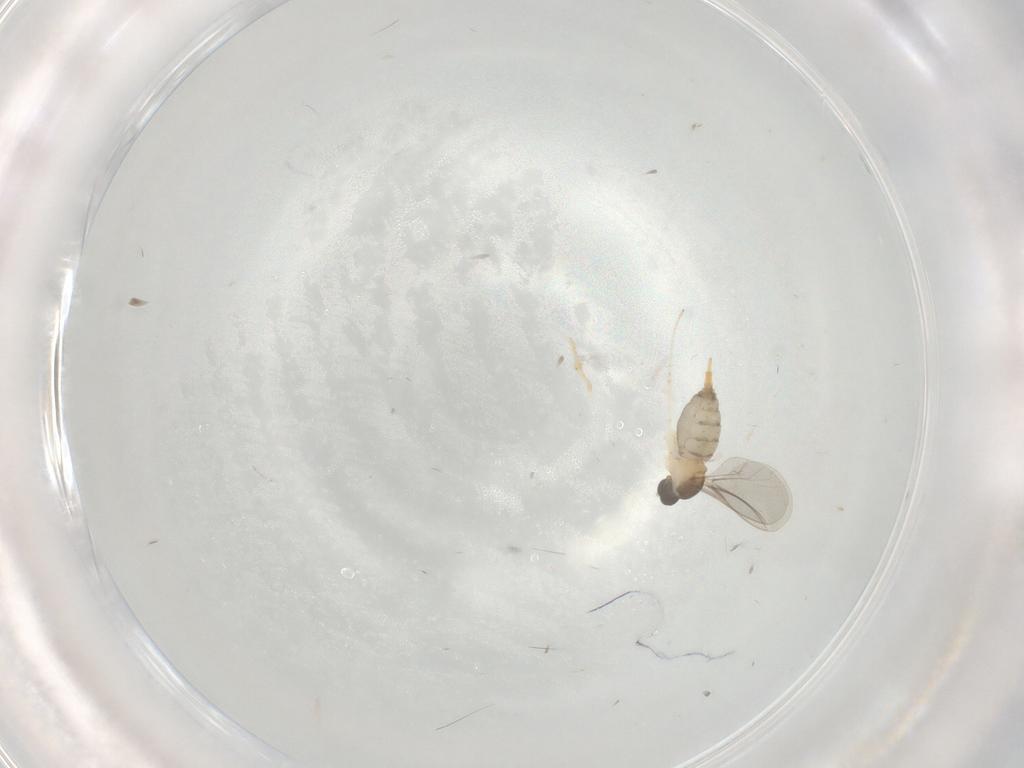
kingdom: Animalia
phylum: Arthropoda
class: Insecta
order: Diptera
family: Cecidomyiidae
